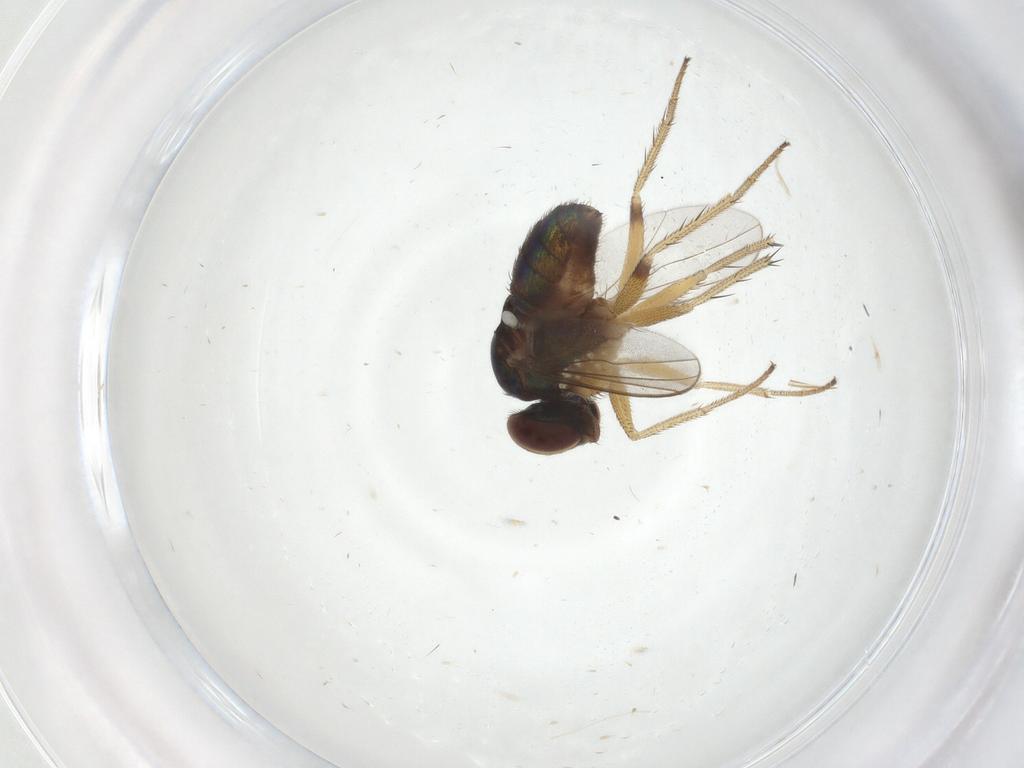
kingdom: Animalia
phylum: Arthropoda
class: Insecta
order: Diptera
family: Dolichopodidae
